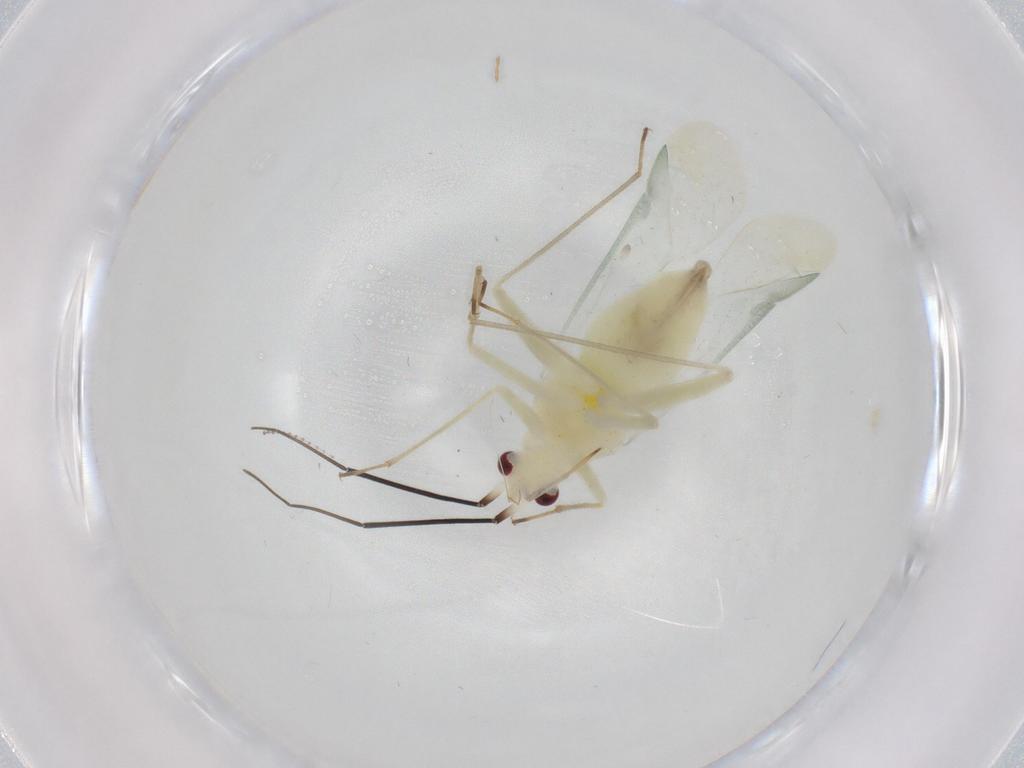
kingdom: Animalia
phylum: Arthropoda
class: Insecta
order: Hemiptera
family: Miridae
